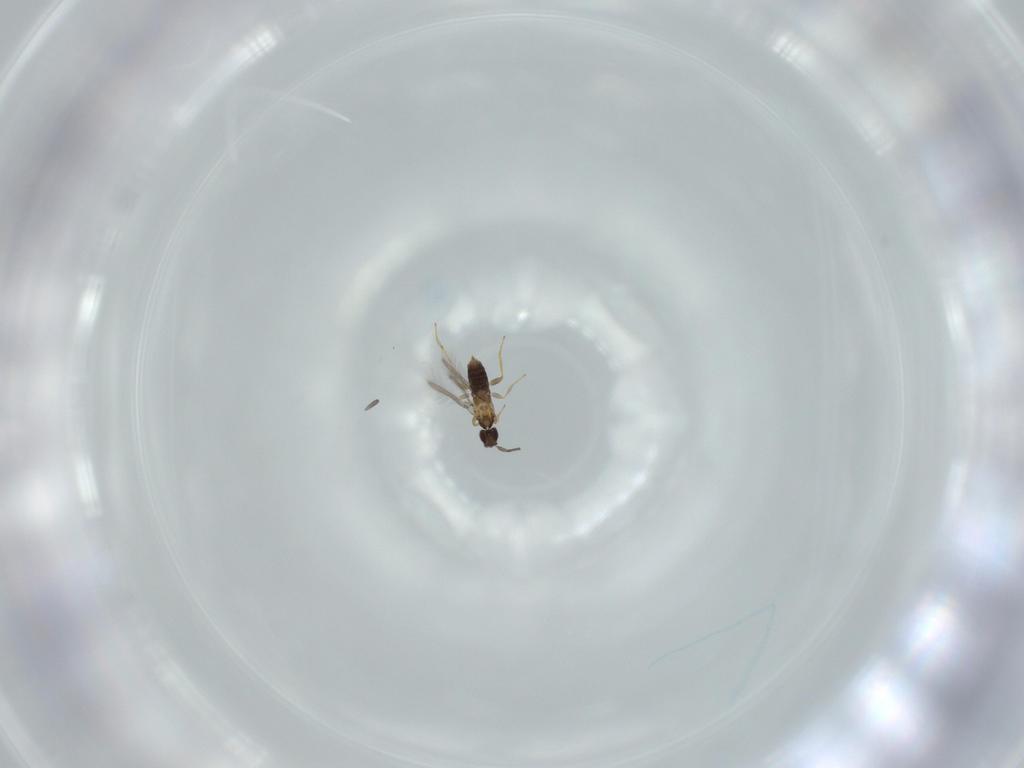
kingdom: Animalia
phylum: Arthropoda
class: Insecta
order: Hymenoptera
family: Mymaridae
